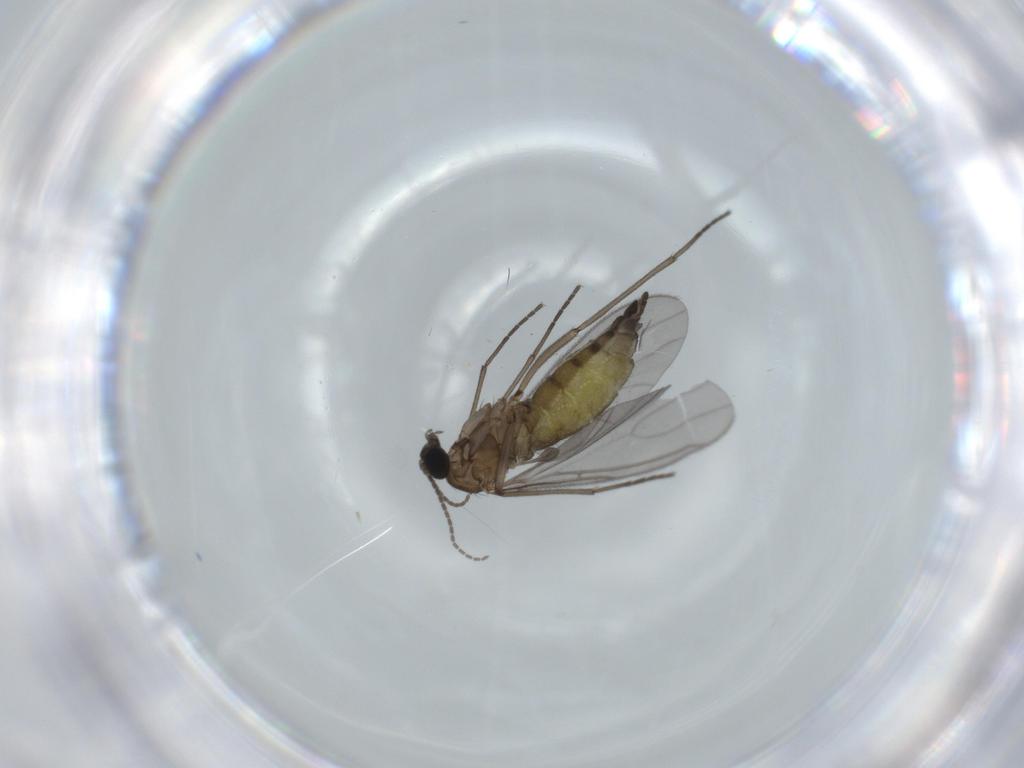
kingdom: Animalia
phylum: Arthropoda
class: Insecta
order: Diptera
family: Sciaridae
